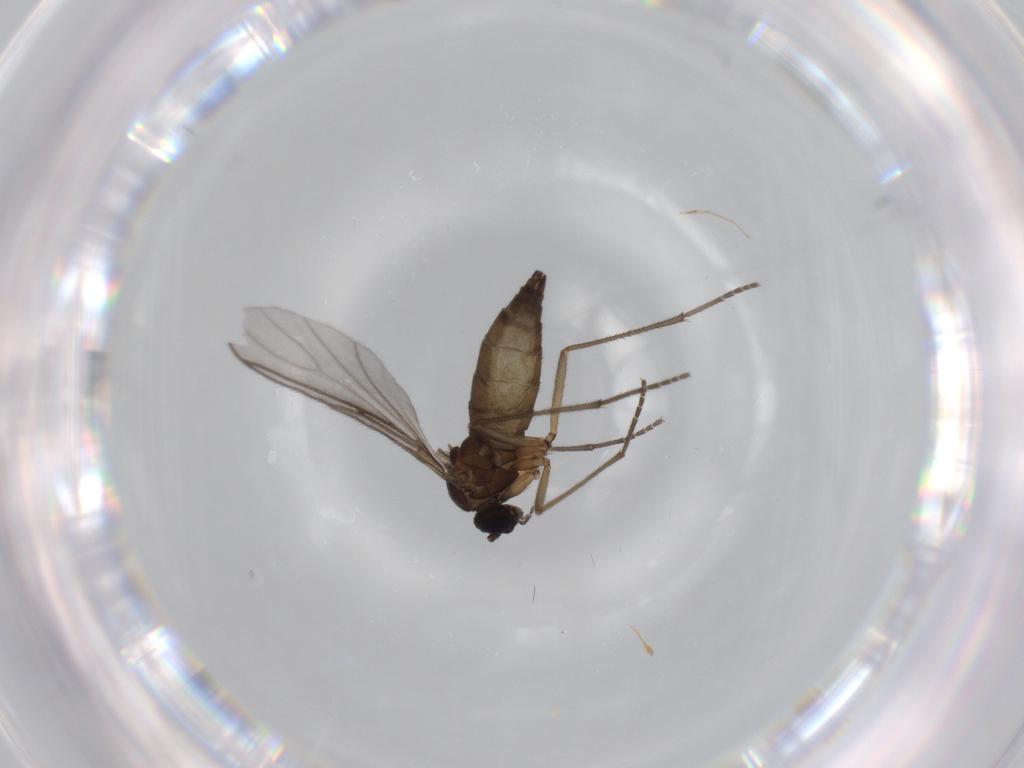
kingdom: Animalia
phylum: Arthropoda
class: Insecta
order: Diptera
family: Sciaridae
